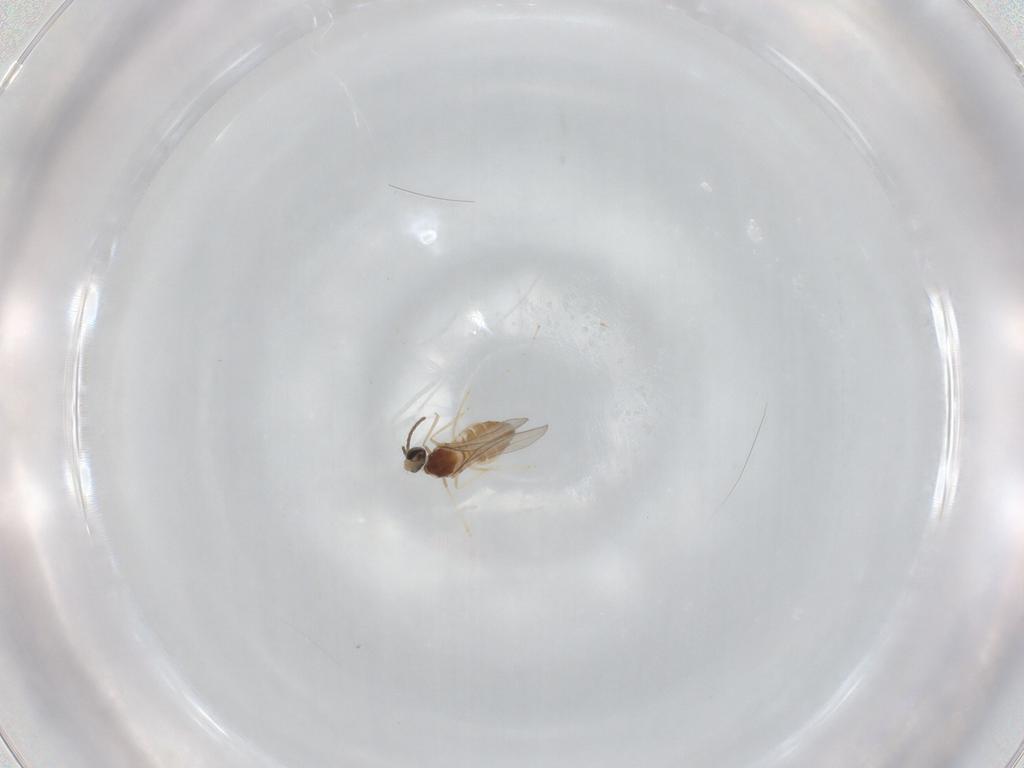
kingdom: Animalia
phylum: Arthropoda
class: Insecta
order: Diptera
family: Cecidomyiidae
